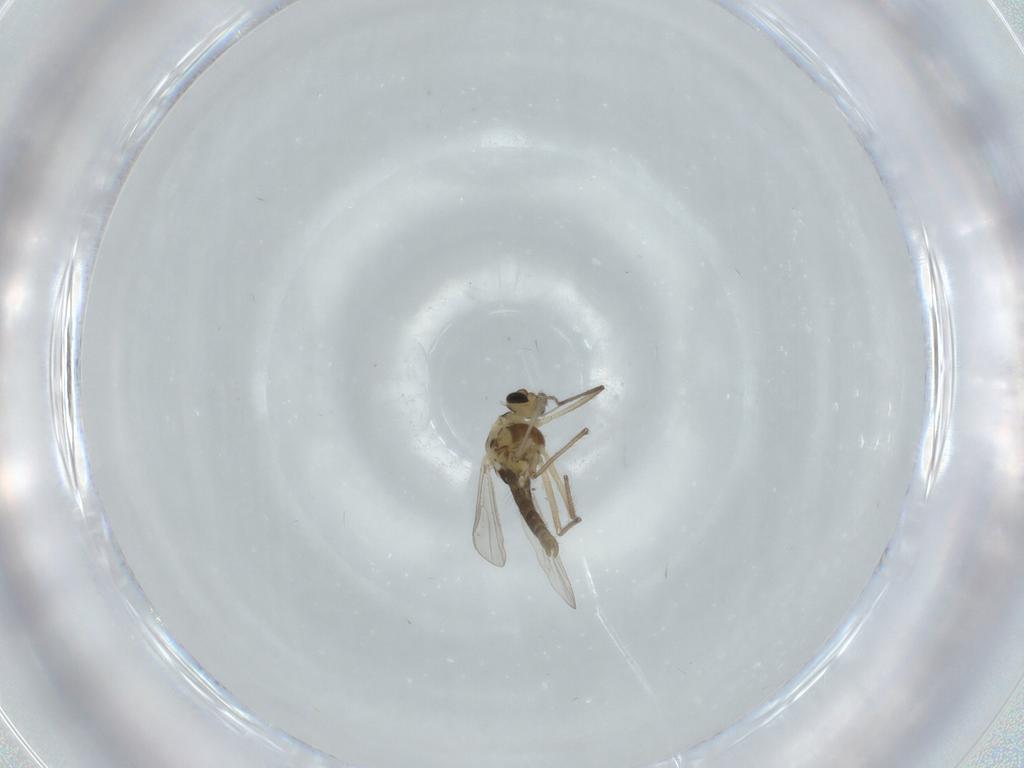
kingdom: Animalia
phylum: Arthropoda
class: Insecta
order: Diptera
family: Chironomidae
